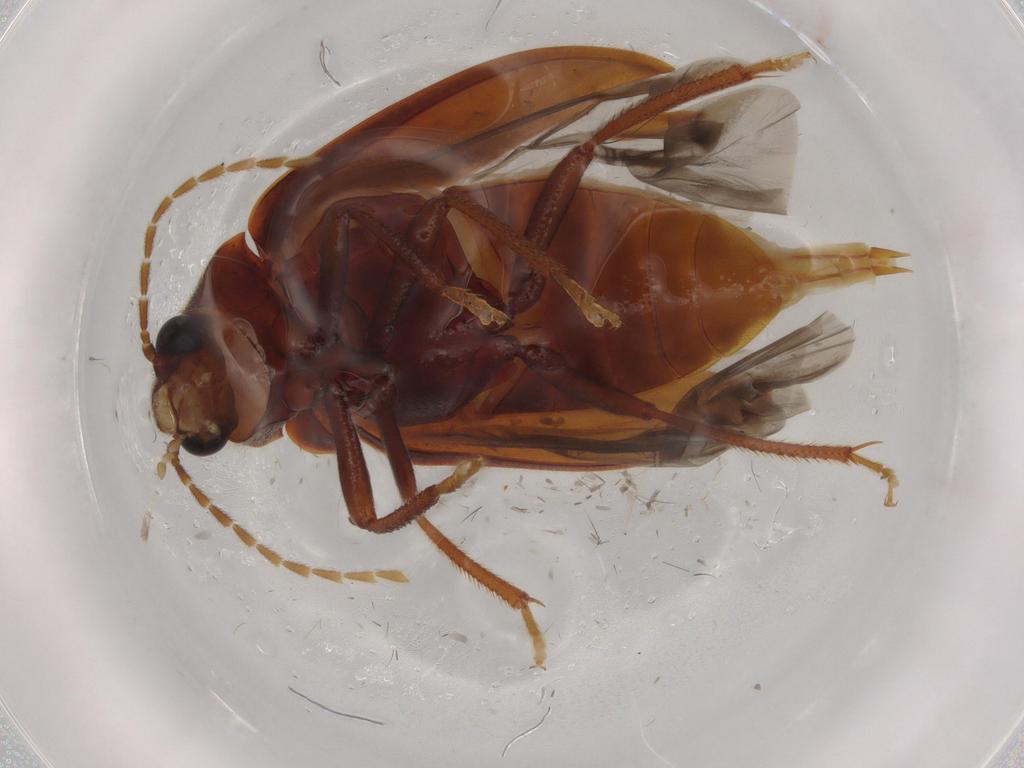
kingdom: Animalia
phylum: Arthropoda
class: Insecta
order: Coleoptera
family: Ptilodactylidae
